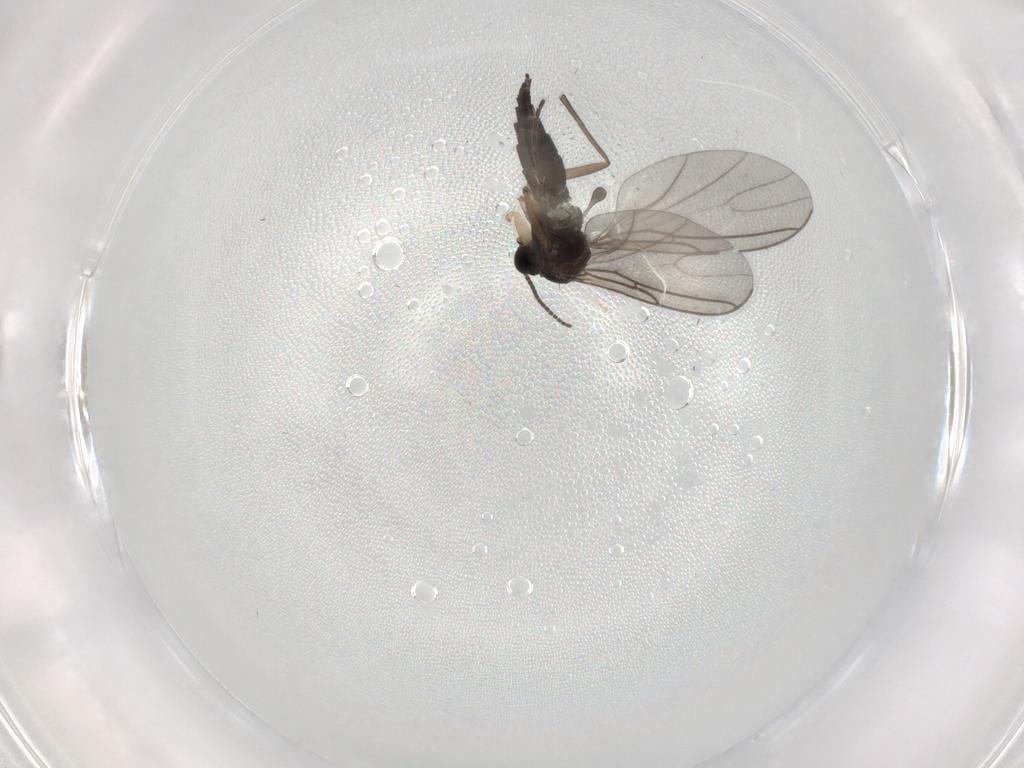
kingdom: Animalia
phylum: Arthropoda
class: Insecta
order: Diptera
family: Sciaridae
